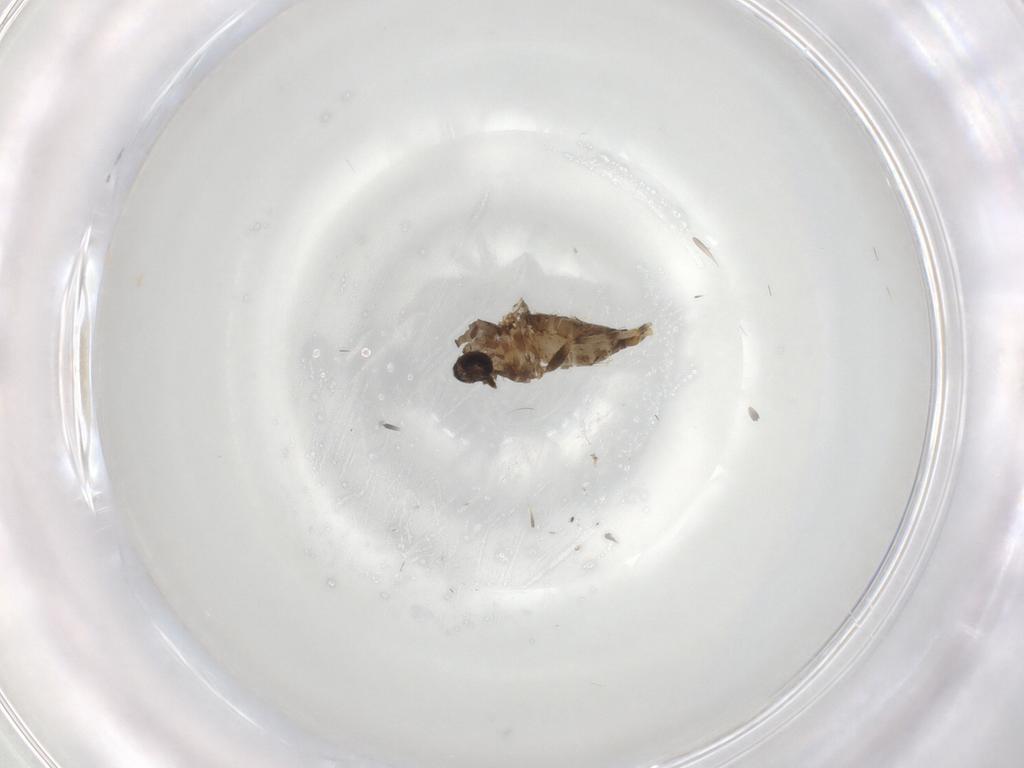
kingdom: Animalia
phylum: Arthropoda
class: Insecta
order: Diptera
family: Ceratopogonidae
